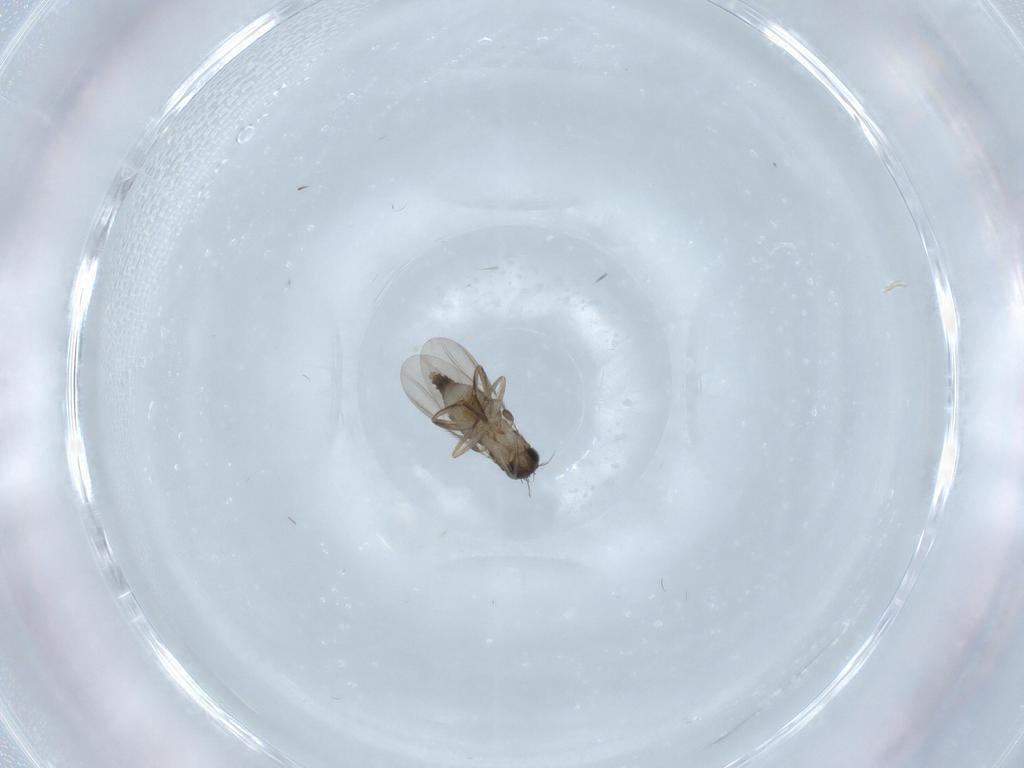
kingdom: Animalia
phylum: Arthropoda
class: Insecta
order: Diptera
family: Phoridae
